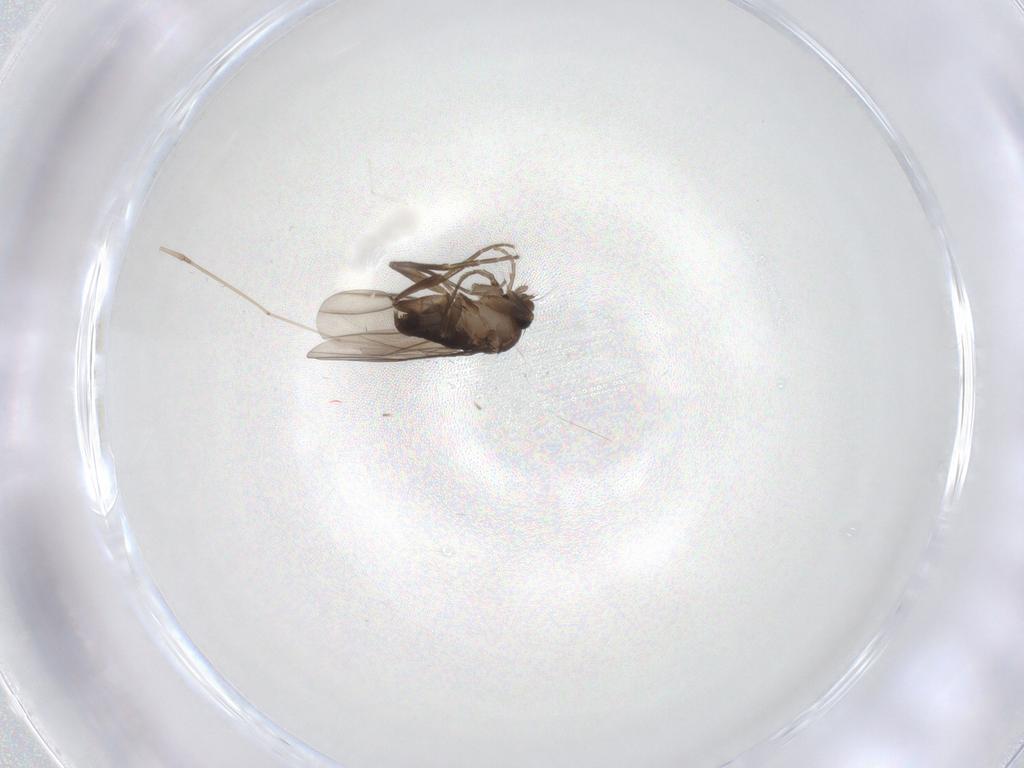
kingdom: Animalia
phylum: Arthropoda
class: Insecta
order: Diptera
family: Phoridae
